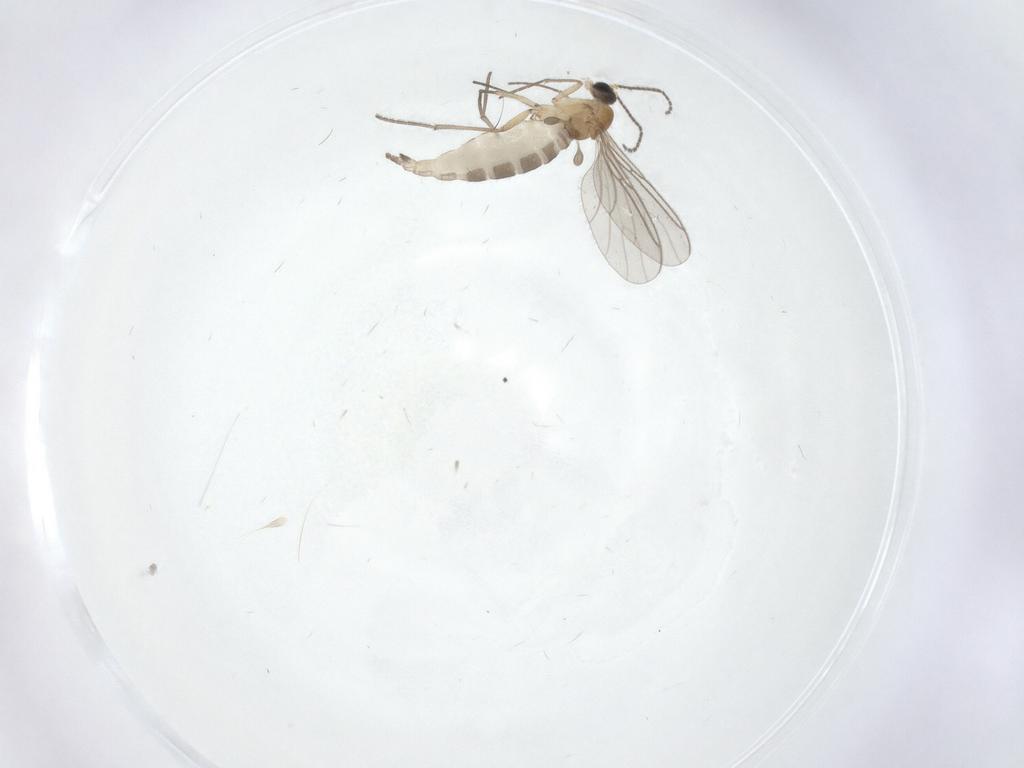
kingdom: Animalia
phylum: Arthropoda
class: Insecta
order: Diptera
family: Sciaridae
